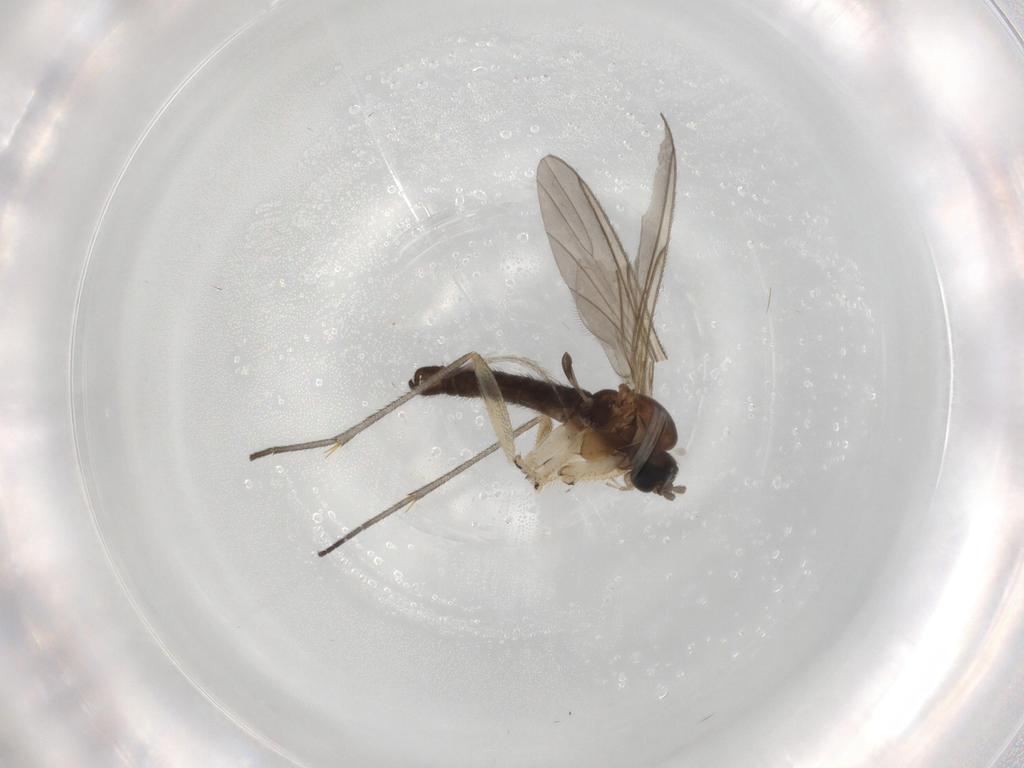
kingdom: Animalia
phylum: Arthropoda
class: Insecta
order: Diptera
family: Sciaridae
